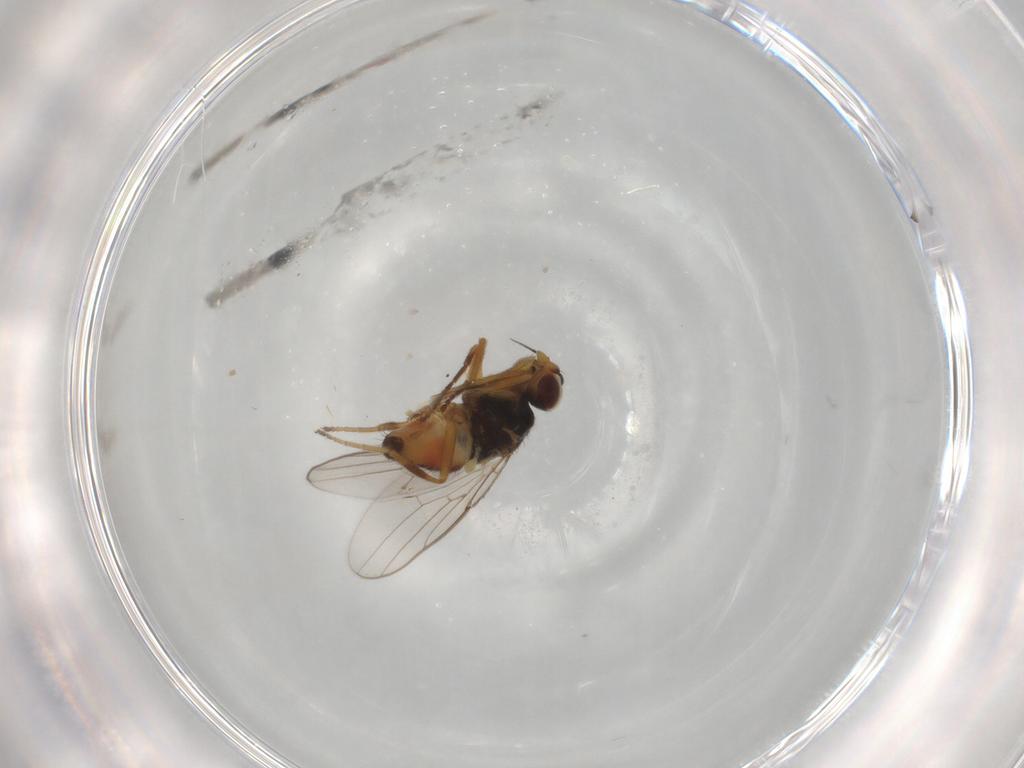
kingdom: Animalia
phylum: Arthropoda
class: Insecta
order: Diptera
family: Chloropidae
